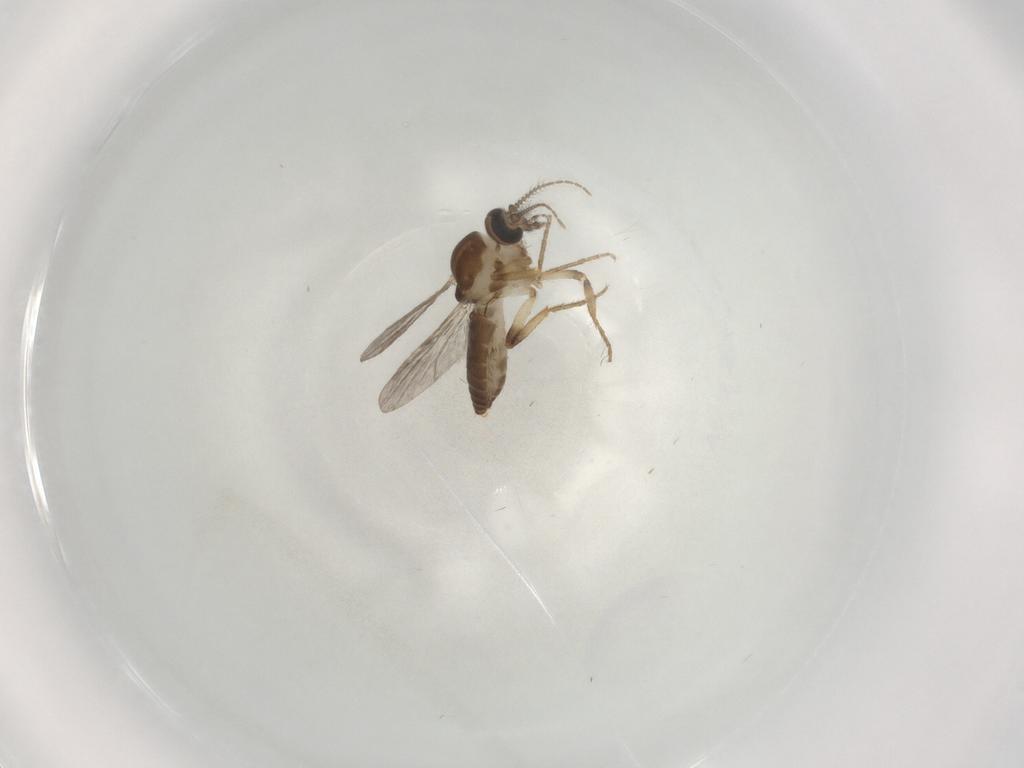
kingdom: Animalia
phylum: Arthropoda
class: Insecta
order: Diptera
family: Ceratopogonidae
